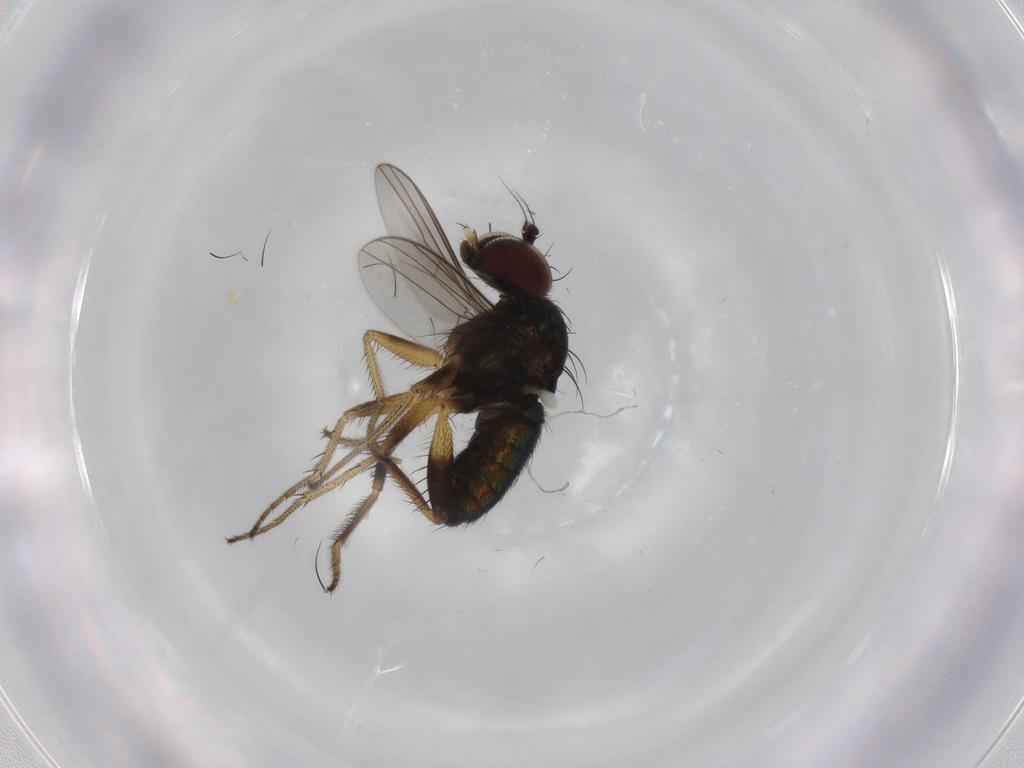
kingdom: Animalia
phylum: Arthropoda
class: Insecta
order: Diptera
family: Dolichopodidae
